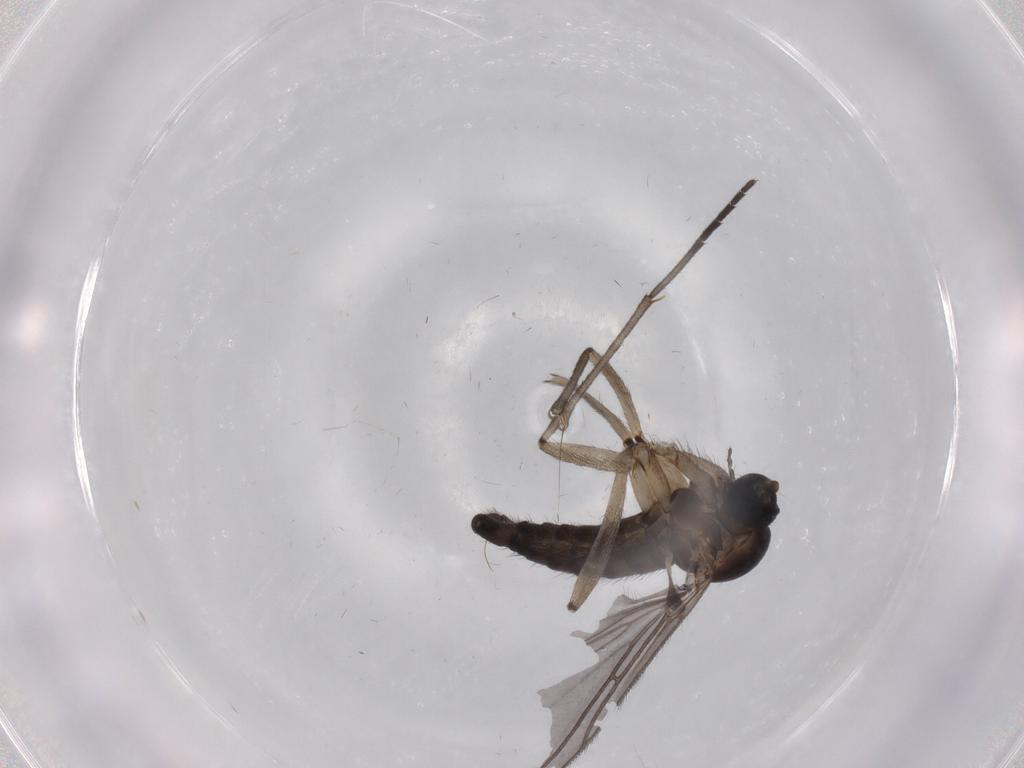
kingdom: Animalia
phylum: Arthropoda
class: Insecta
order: Diptera
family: Sciaridae
